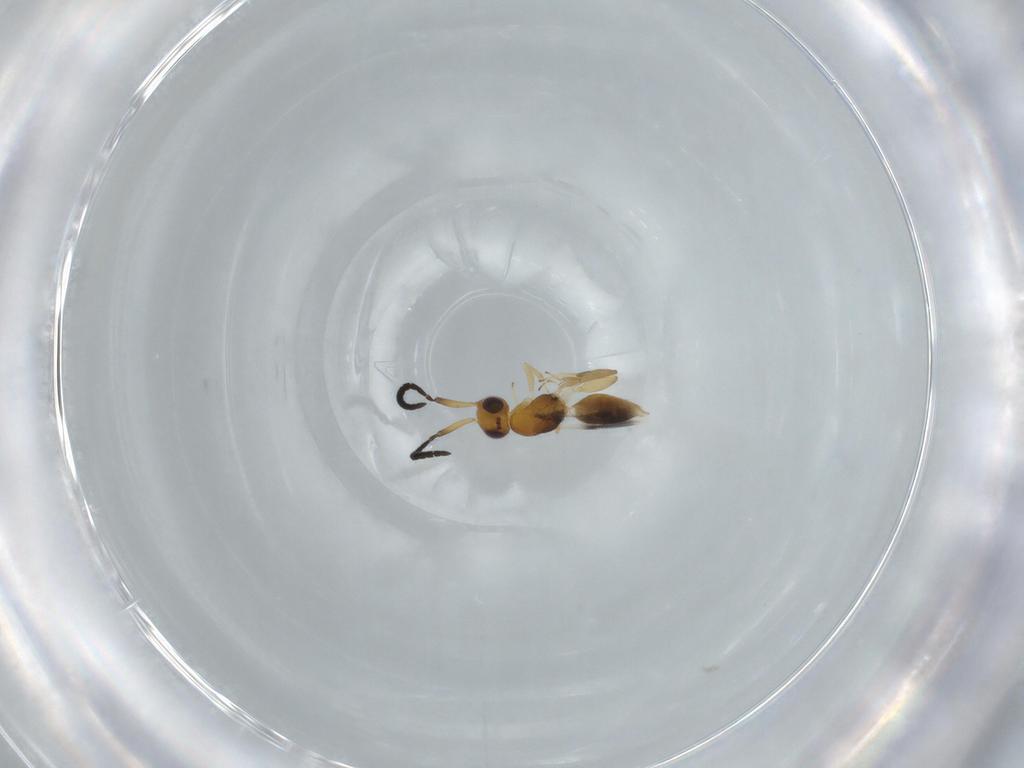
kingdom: Animalia
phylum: Arthropoda
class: Insecta
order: Hymenoptera
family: Megaspilidae
